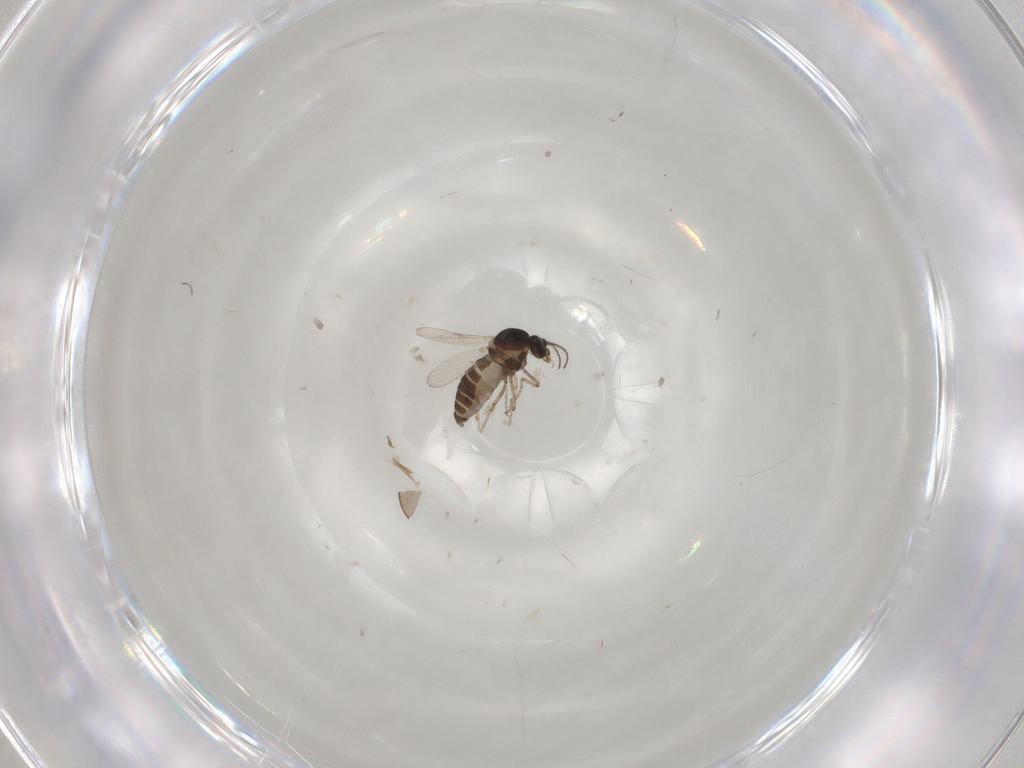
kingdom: Animalia
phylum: Arthropoda
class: Insecta
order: Diptera
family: Ceratopogonidae
